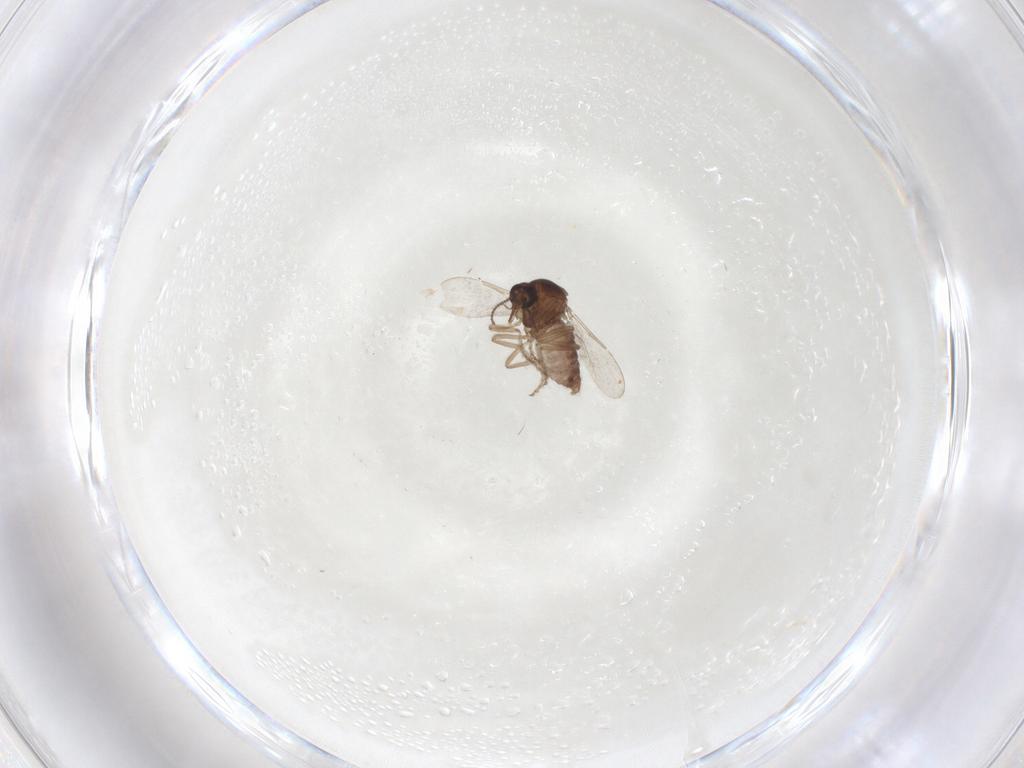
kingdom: Animalia
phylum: Arthropoda
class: Insecta
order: Diptera
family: Ceratopogonidae
